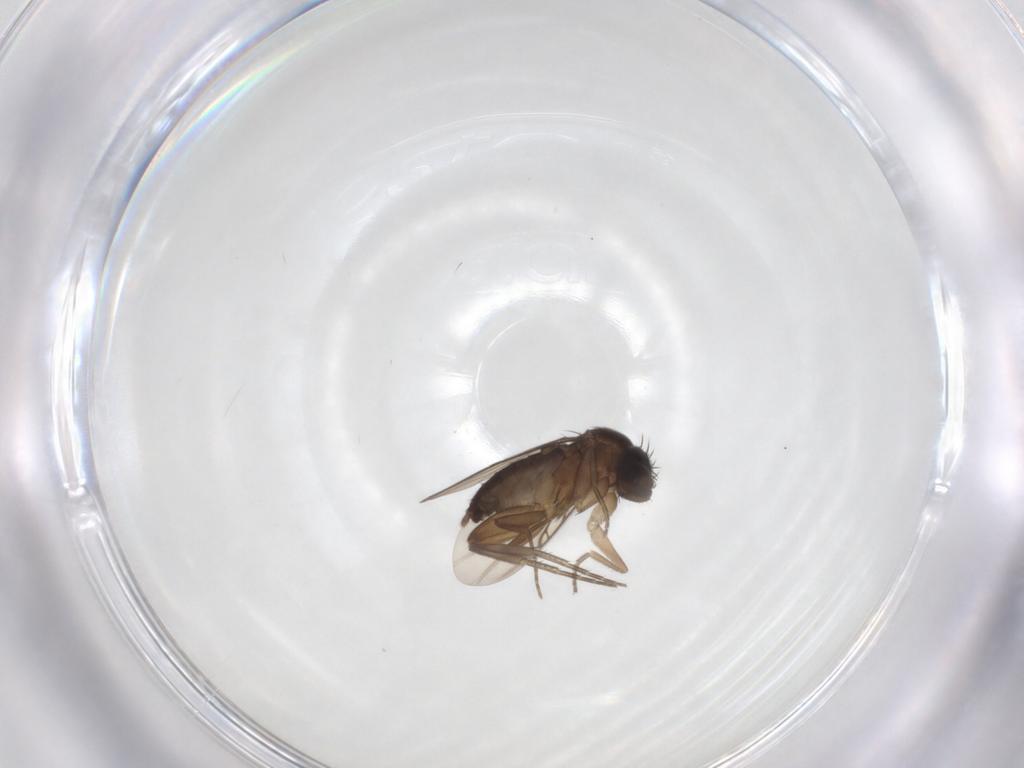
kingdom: Animalia
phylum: Arthropoda
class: Insecta
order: Diptera
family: Phoridae
